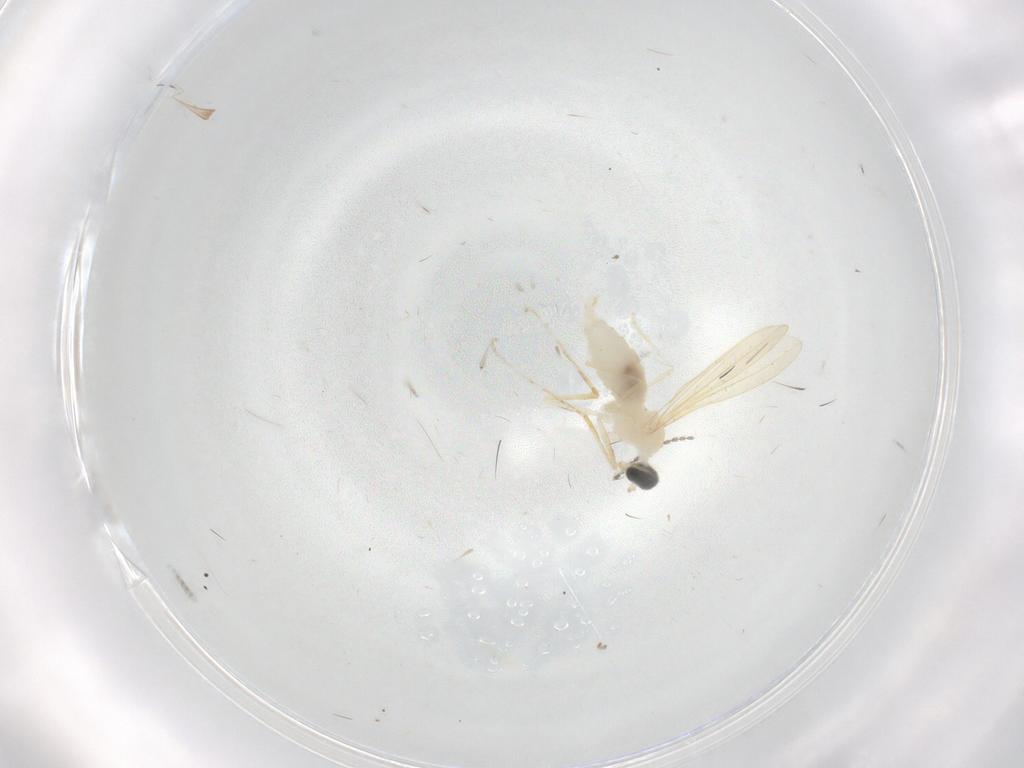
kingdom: Animalia
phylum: Arthropoda
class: Insecta
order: Diptera
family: Cecidomyiidae
